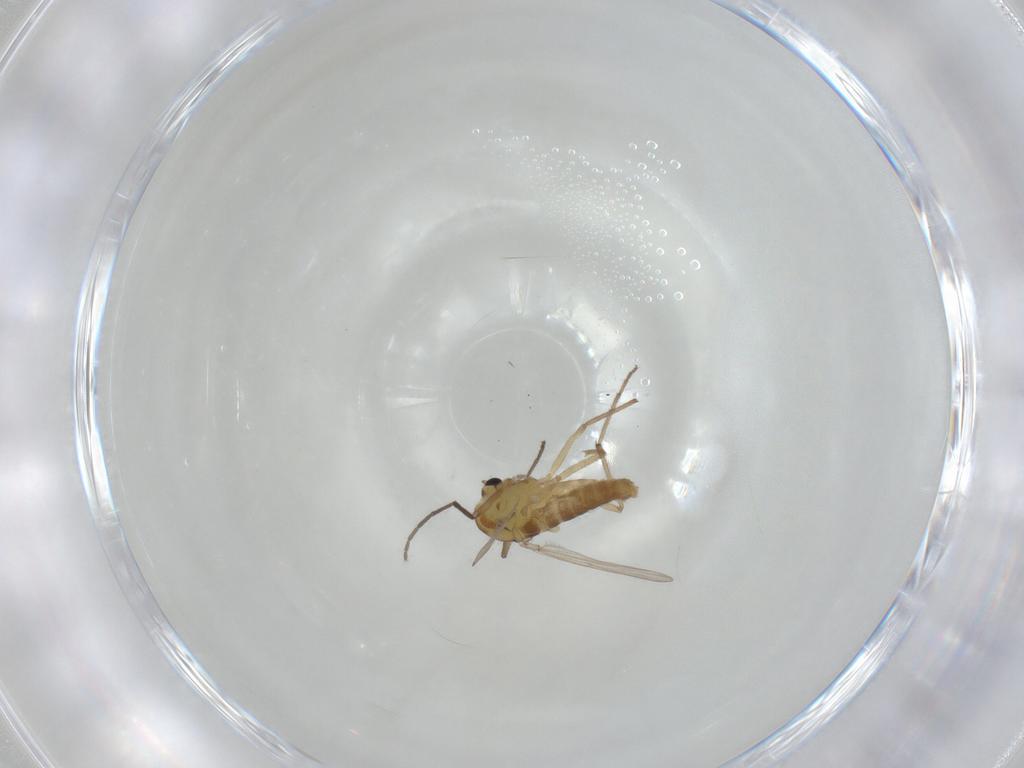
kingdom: Animalia
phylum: Arthropoda
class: Insecta
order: Diptera
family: Chironomidae
